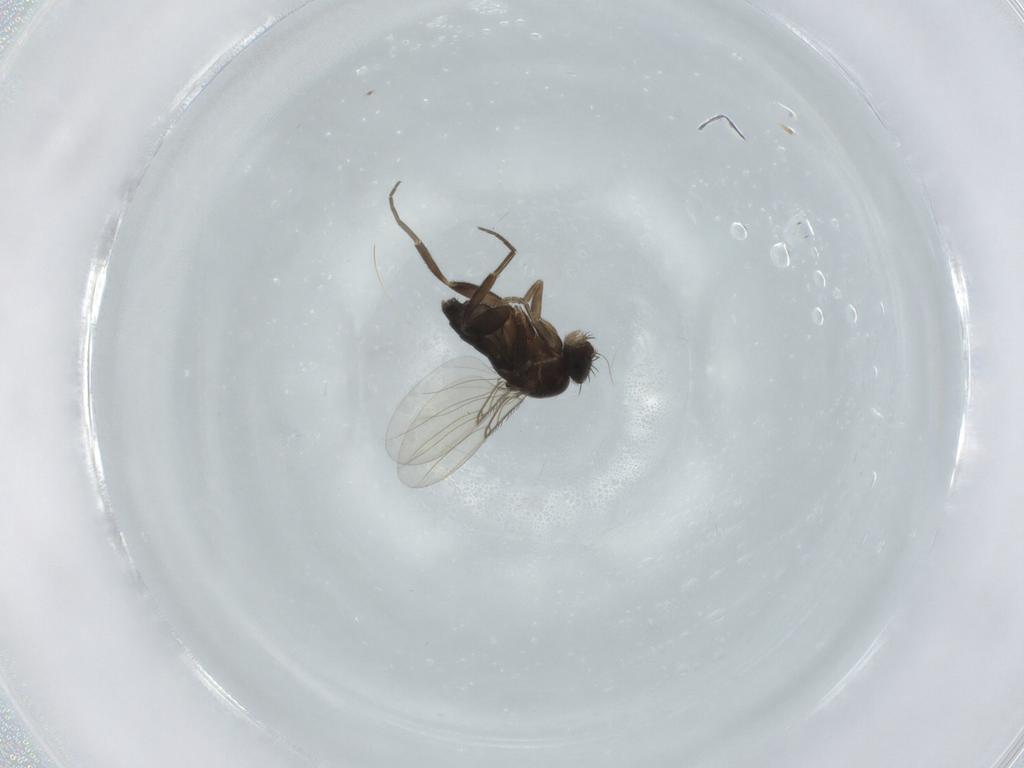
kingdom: Animalia
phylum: Arthropoda
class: Insecta
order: Diptera
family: Phoridae
